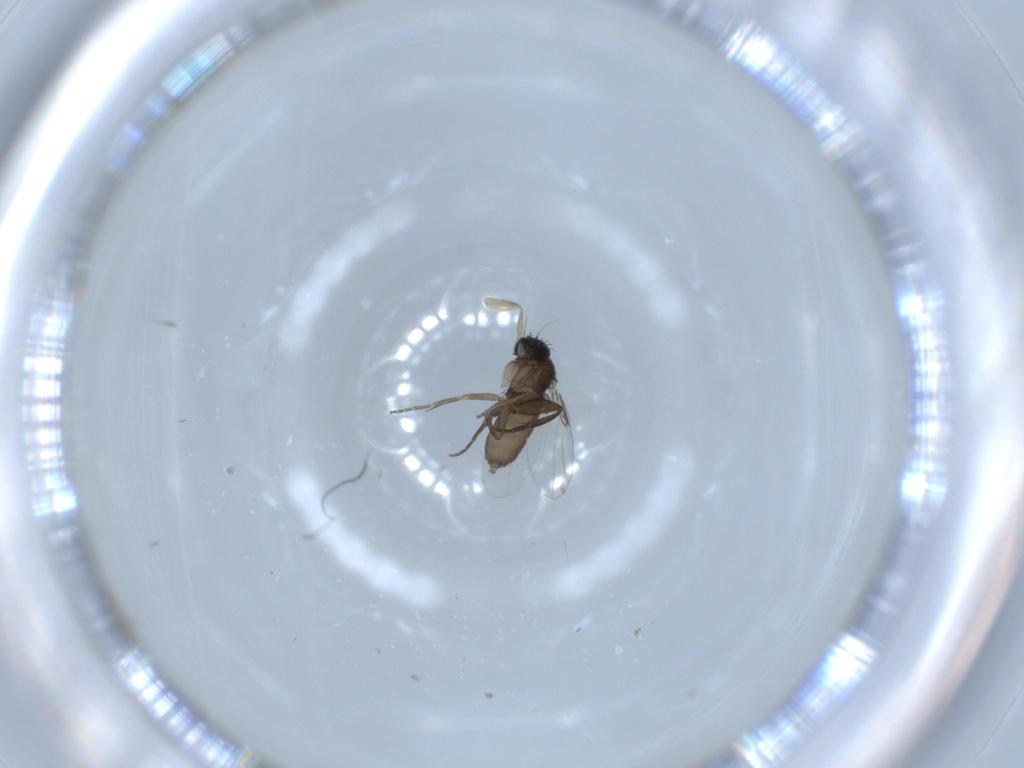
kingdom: Animalia
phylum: Arthropoda
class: Insecta
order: Diptera
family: Phoridae
